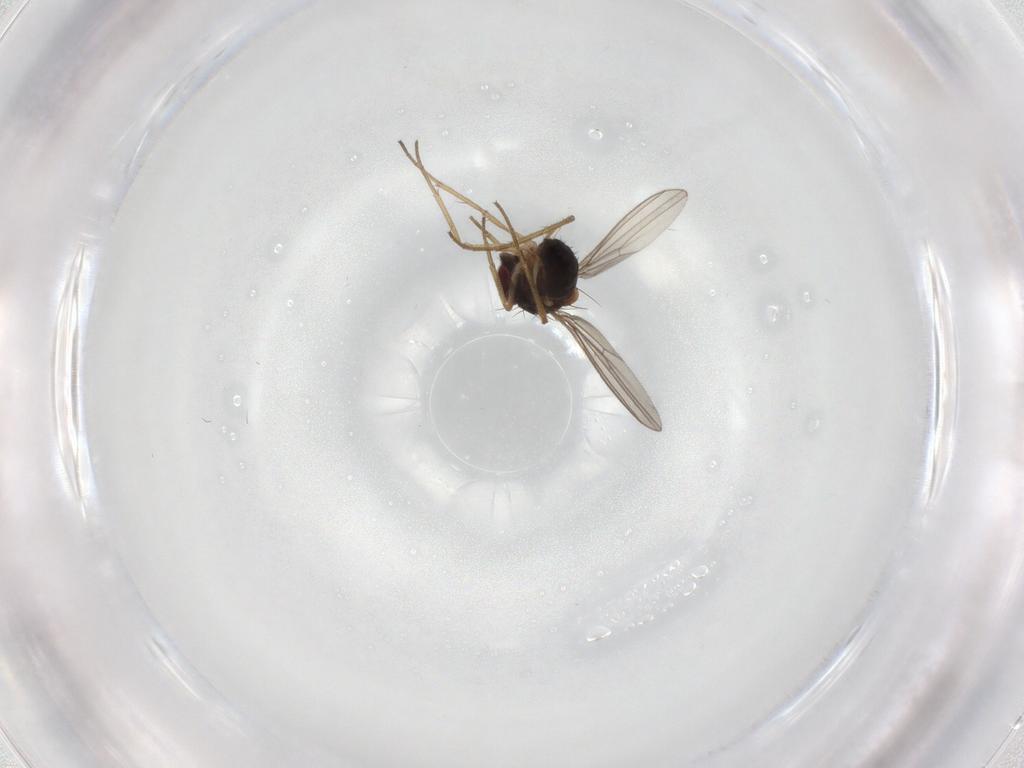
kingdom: Animalia
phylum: Arthropoda
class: Insecta
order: Diptera
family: Dolichopodidae
